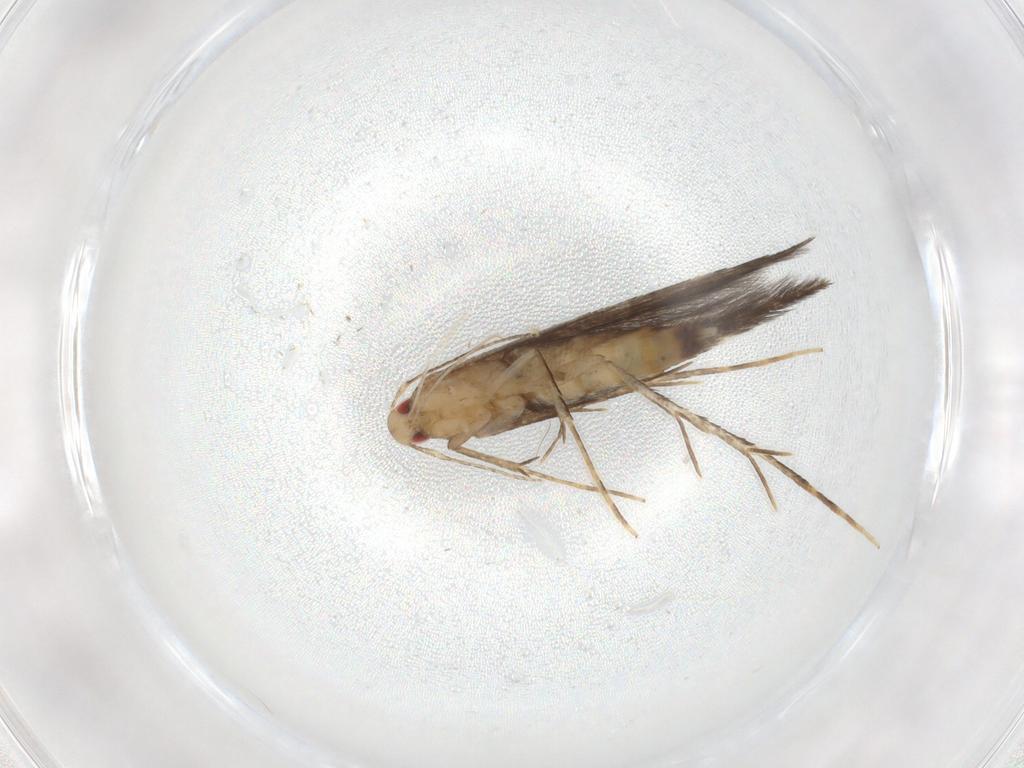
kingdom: Animalia
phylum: Arthropoda
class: Insecta
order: Lepidoptera
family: Cosmopterigidae
